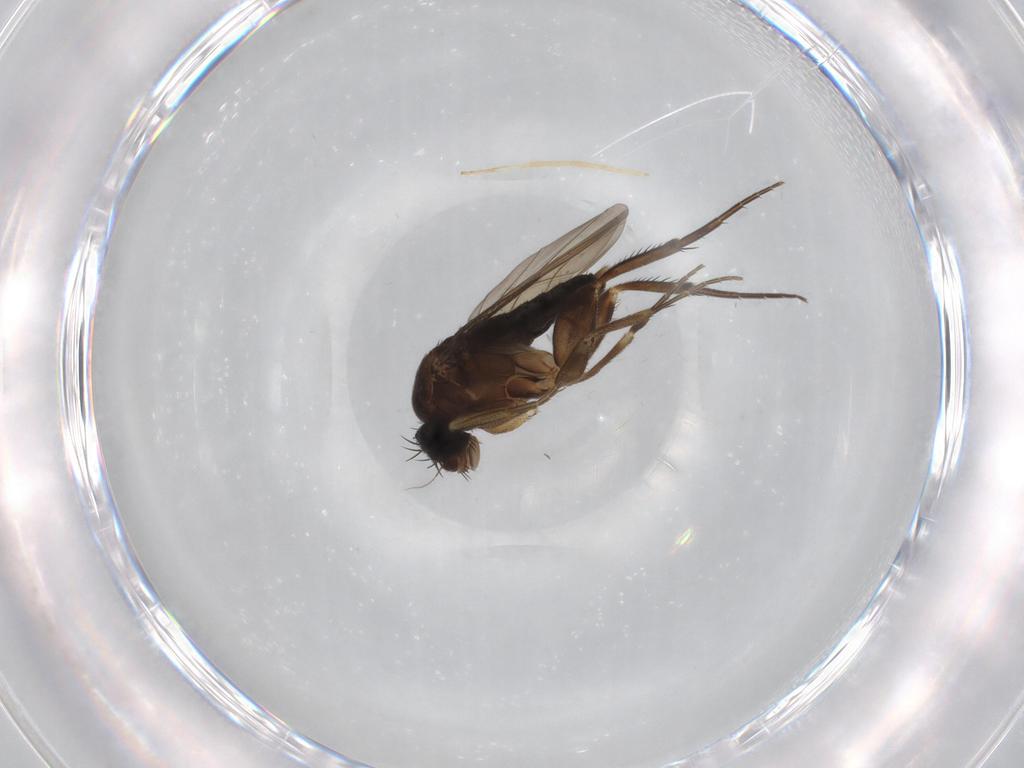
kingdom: Animalia
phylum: Arthropoda
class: Insecta
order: Diptera
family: Phoridae
